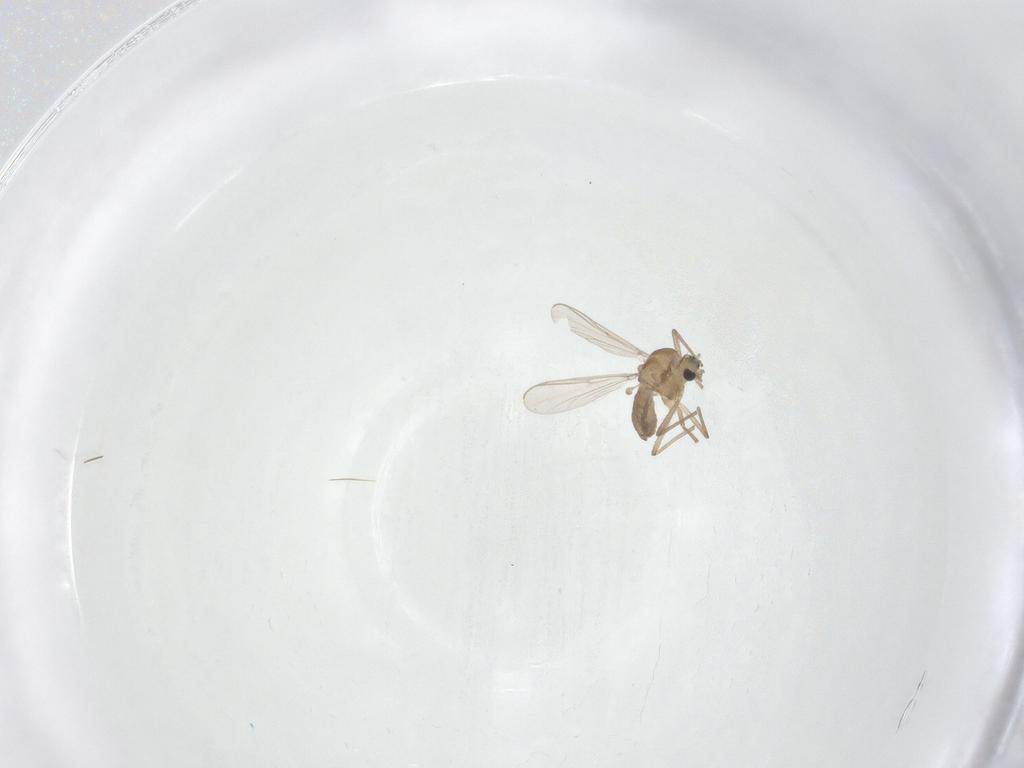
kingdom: Animalia
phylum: Arthropoda
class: Insecta
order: Diptera
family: Chironomidae
